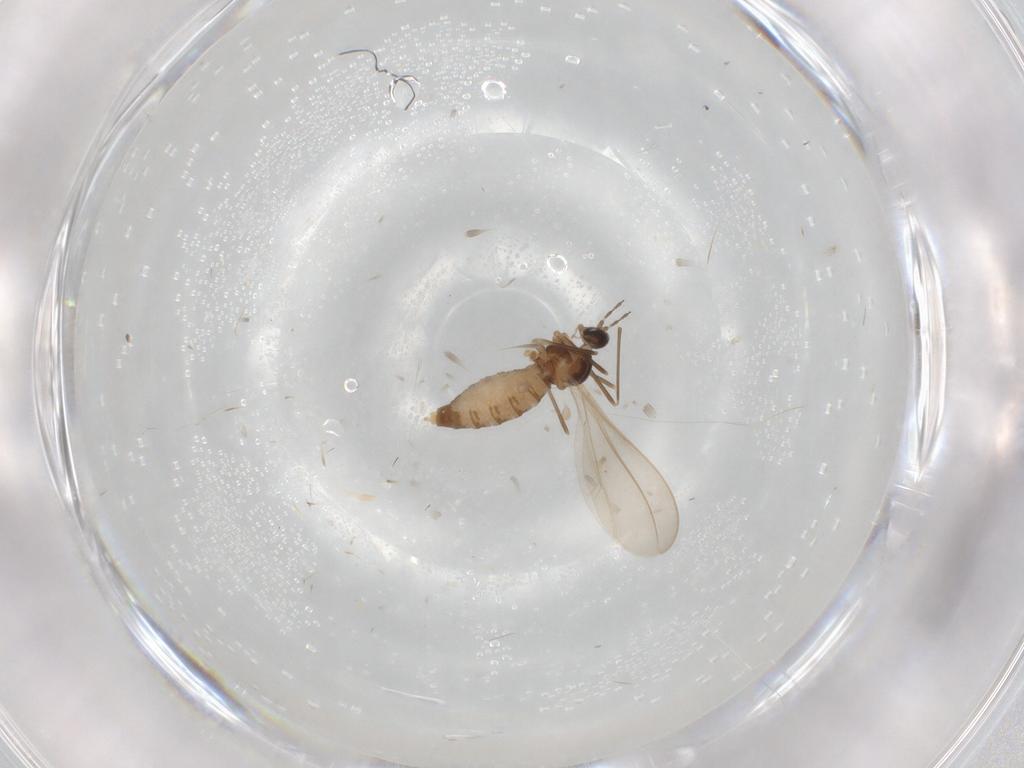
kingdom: Animalia
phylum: Arthropoda
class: Insecta
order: Diptera
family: Cecidomyiidae
